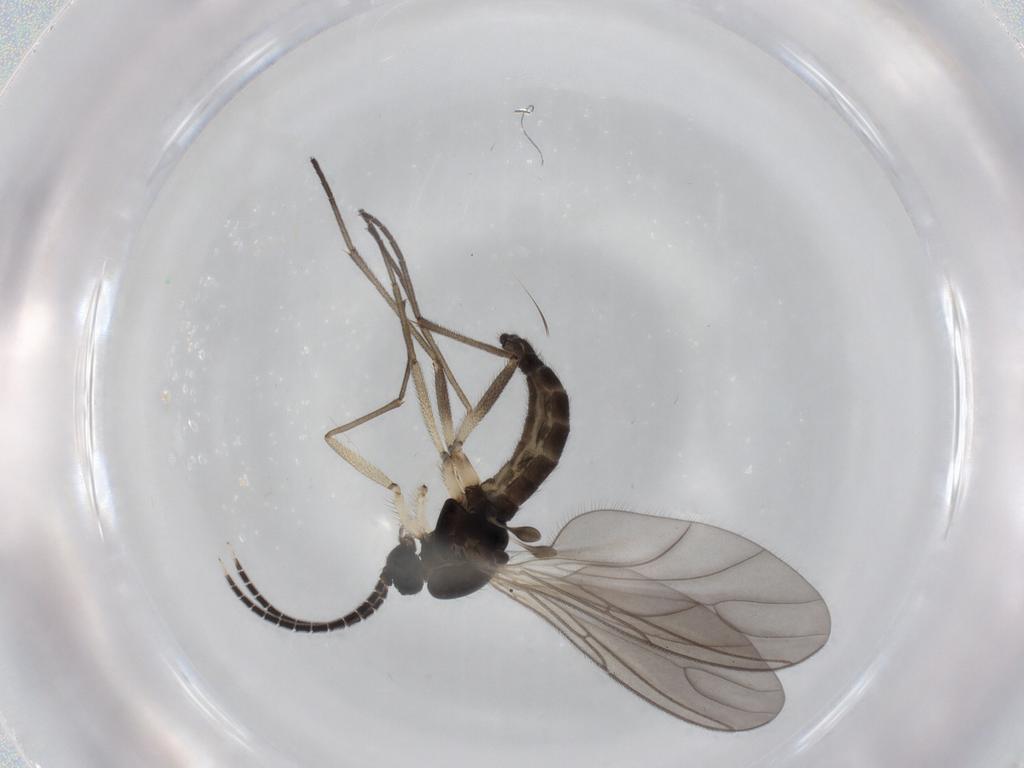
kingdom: Animalia
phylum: Arthropoda
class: Insecta
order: Diptera
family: Sciaridae
